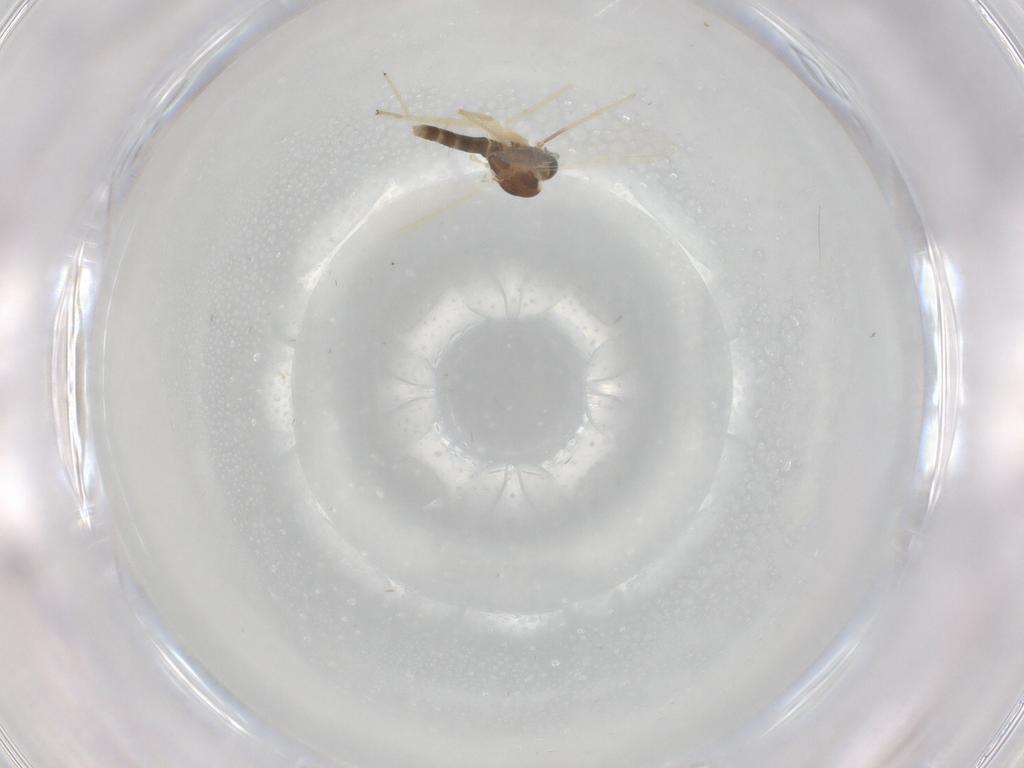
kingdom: Animalia
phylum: Arthropoda
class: Insecta
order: Diptera
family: Chironomidae
